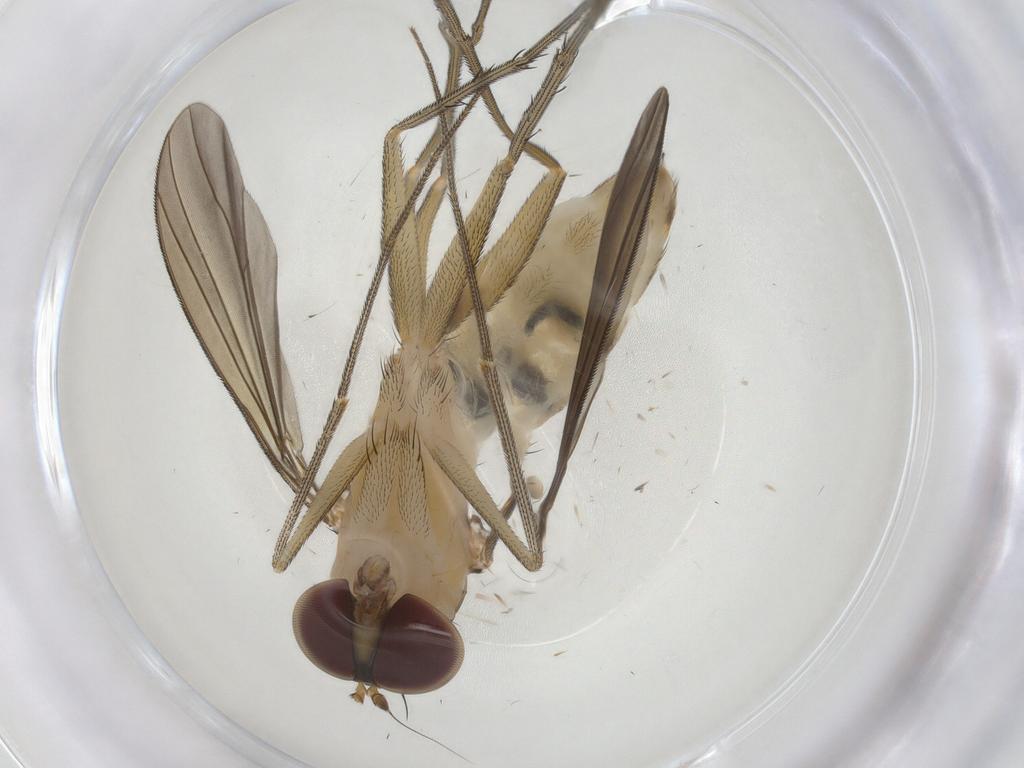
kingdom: Animalia
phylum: Arthropoda
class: Insecta
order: Diptera
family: Dolichopodidae
